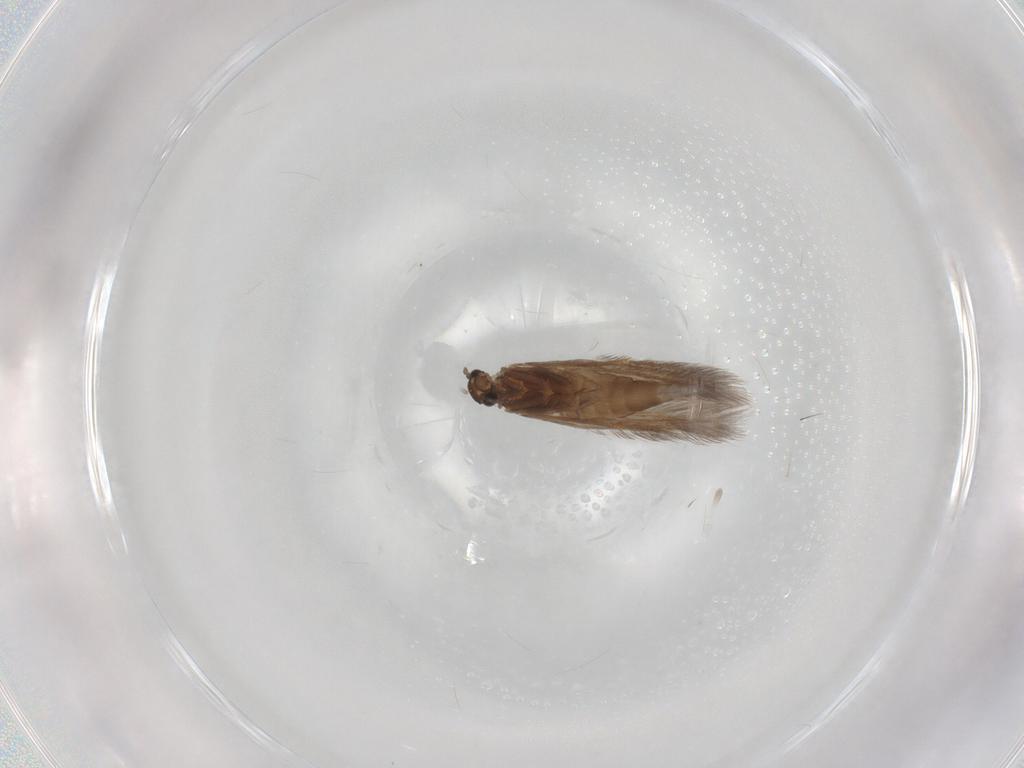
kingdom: Animalia
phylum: Arthropoda
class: Insecta
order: Trichoptera
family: Hydroptilidae
